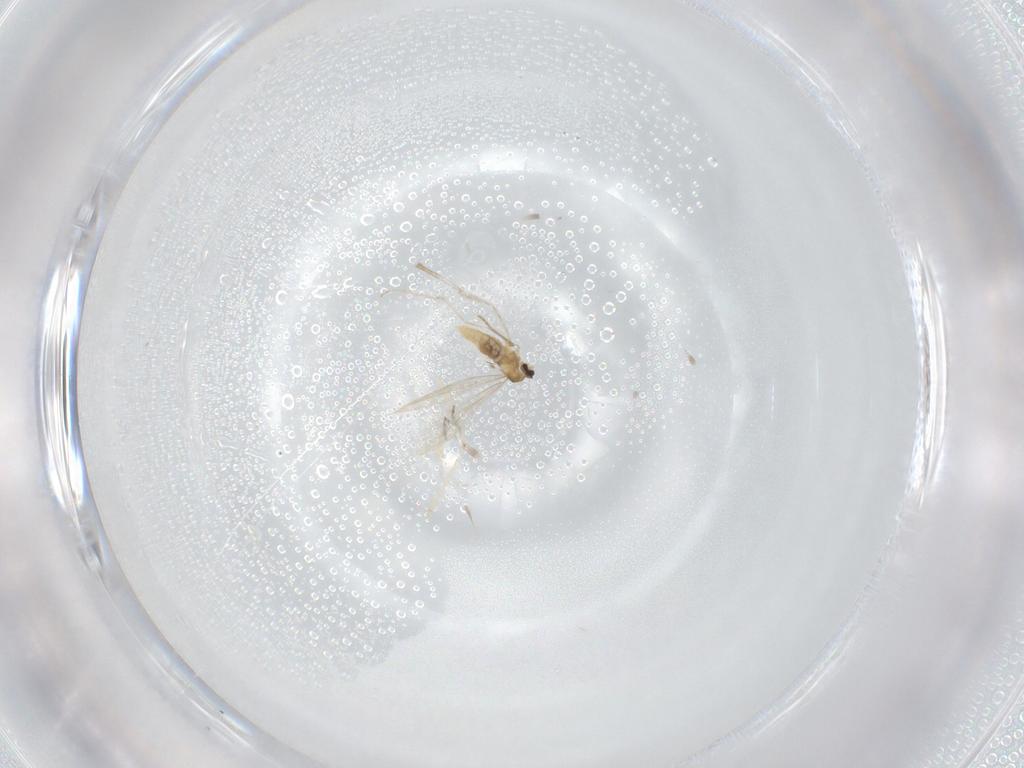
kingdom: Animalia
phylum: Arthropoda
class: Insecta
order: Diptera
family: Cecidomyiidae
